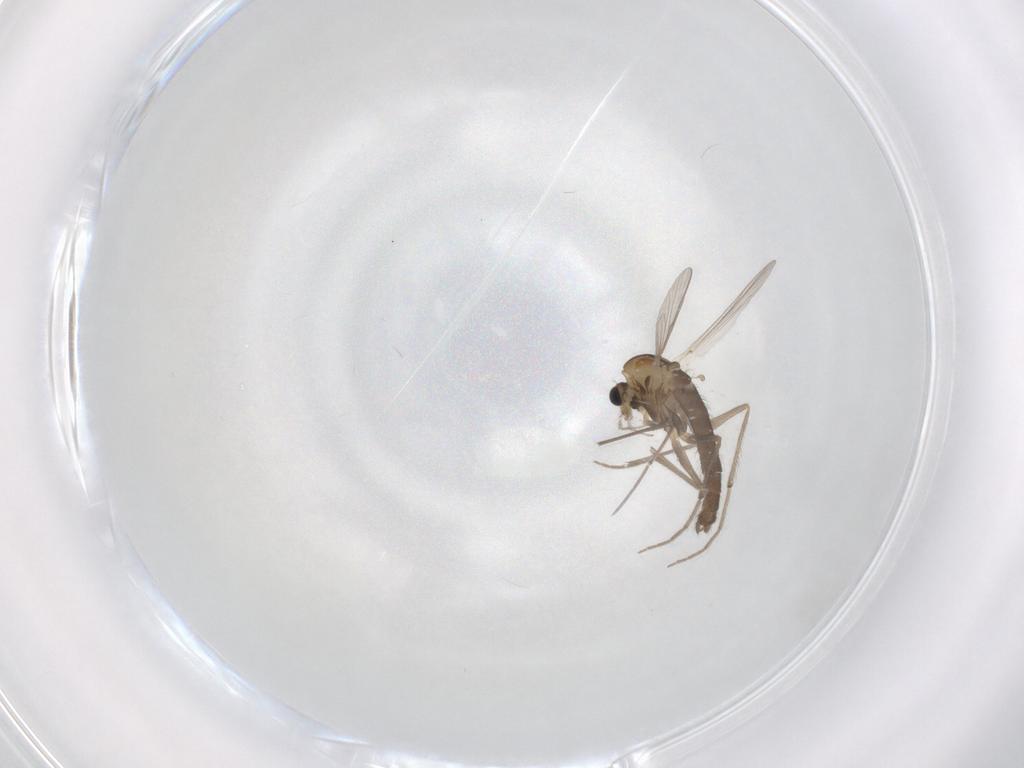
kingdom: Animalia
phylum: Arthropoda
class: Insecta
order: Diptera
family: Chironomidae
